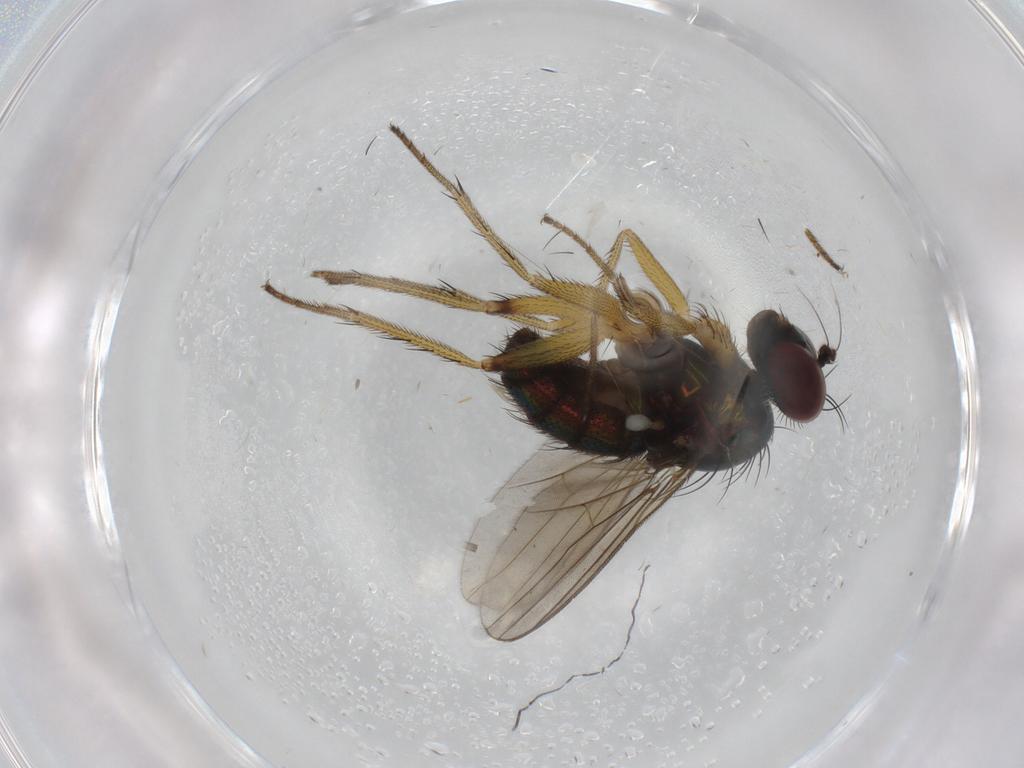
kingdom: Animalia
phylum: Arthropoda
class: Insecta
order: Diptera
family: Dolichopodidae
